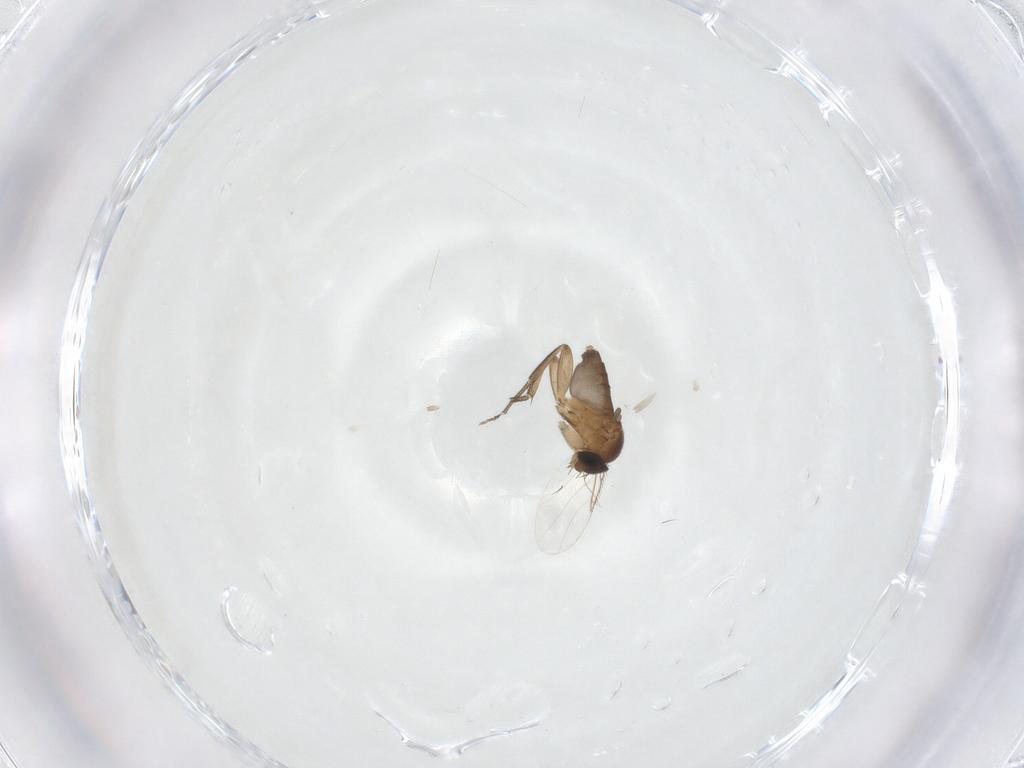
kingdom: Animalia
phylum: Arthropoda
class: Insecta
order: Diptera
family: Phoridae
